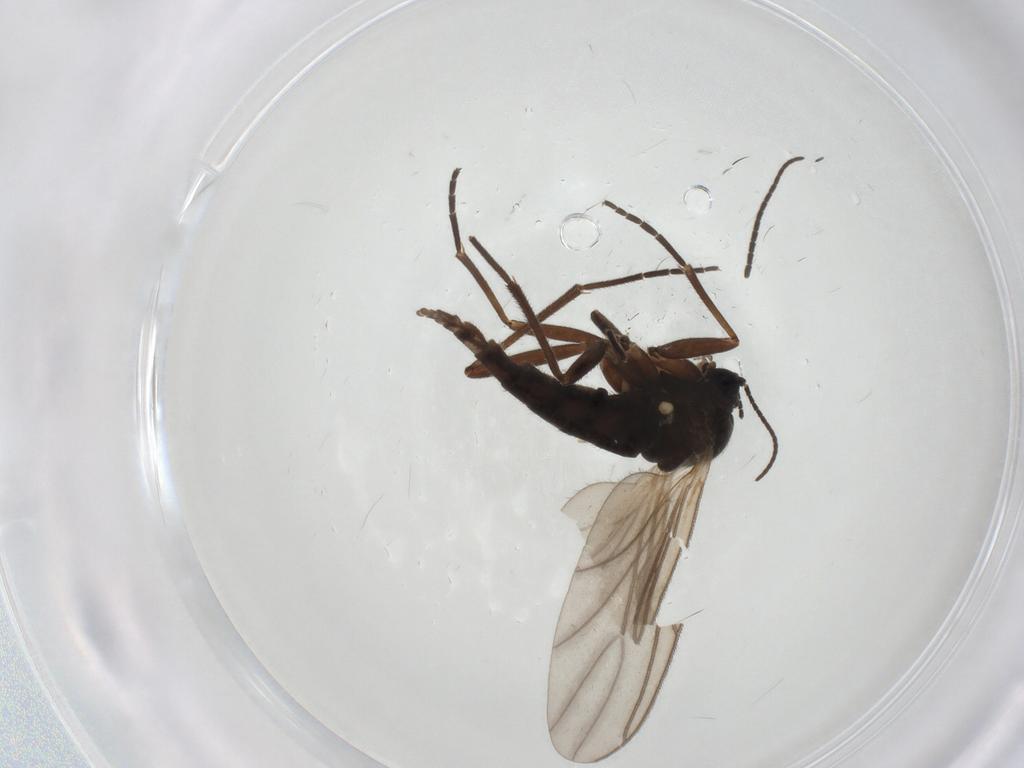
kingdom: Animalia
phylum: Arthropoda
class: Insecta
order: Diptera
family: Sciaridae
